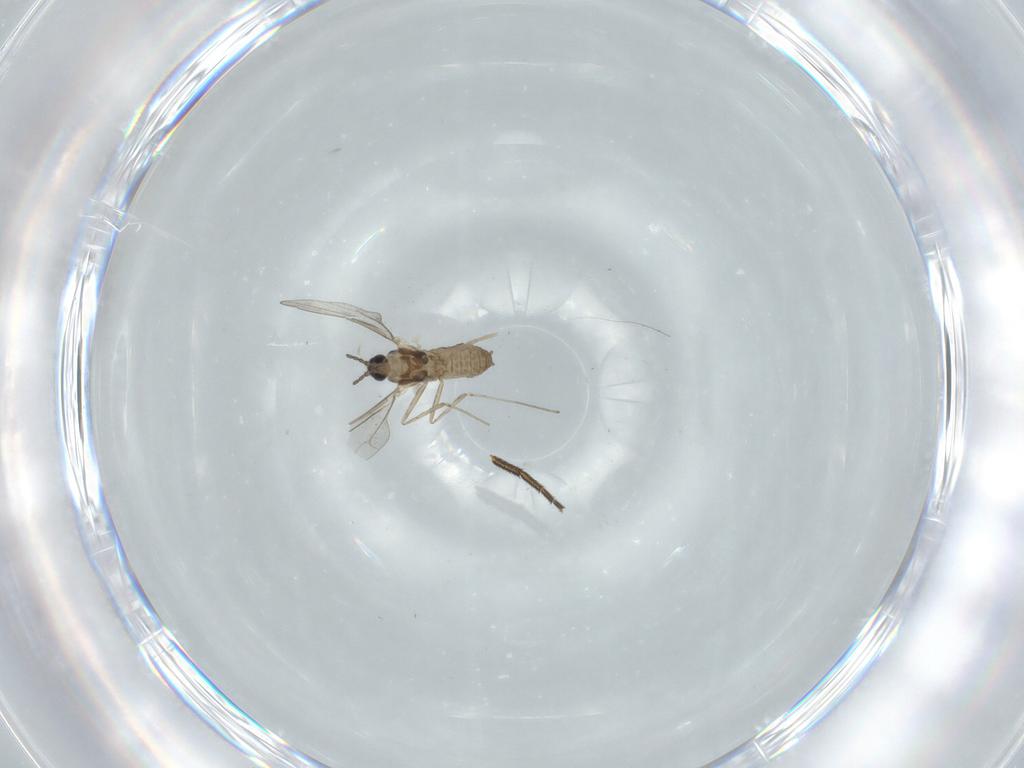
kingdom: Animalia
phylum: Arthropoda
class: Insecta
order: Diptera
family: Cecidomyiidae
